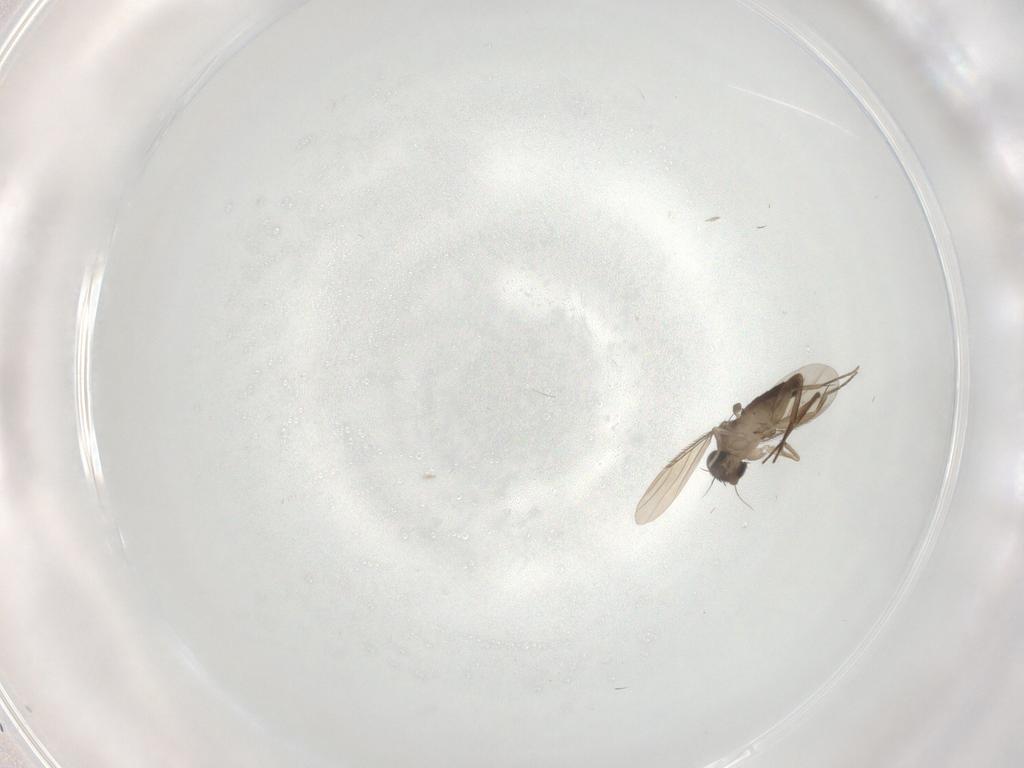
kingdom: Animalia
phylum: Arthropoda
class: Insecta
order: Diptera
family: Phoridae
